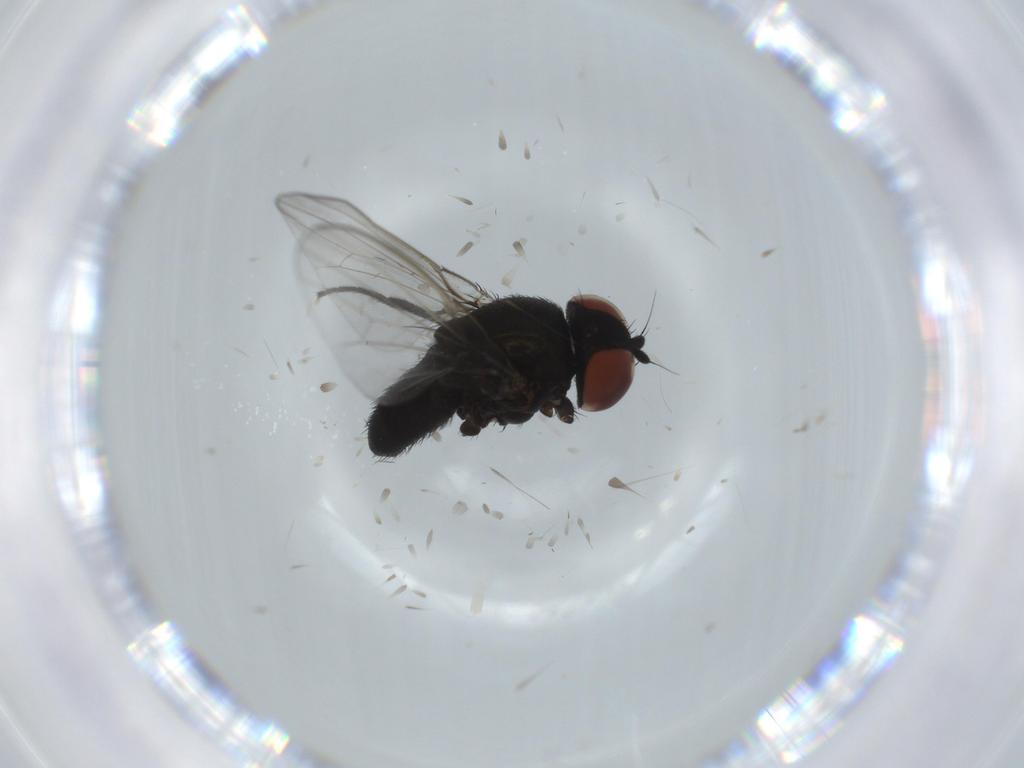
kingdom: Animalia
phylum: Arthropoda
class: Insecta
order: Diptera
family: Milichiidae
